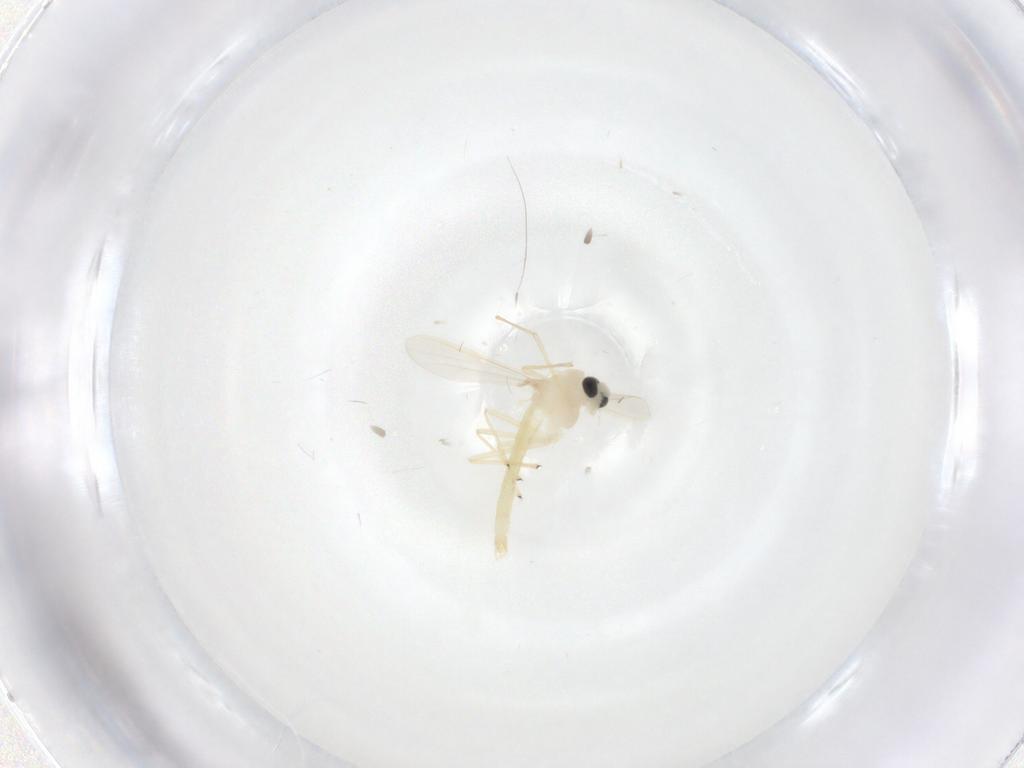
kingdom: Animalia
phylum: Arthropoda
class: Insecta
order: Diptera
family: Chironomidae
